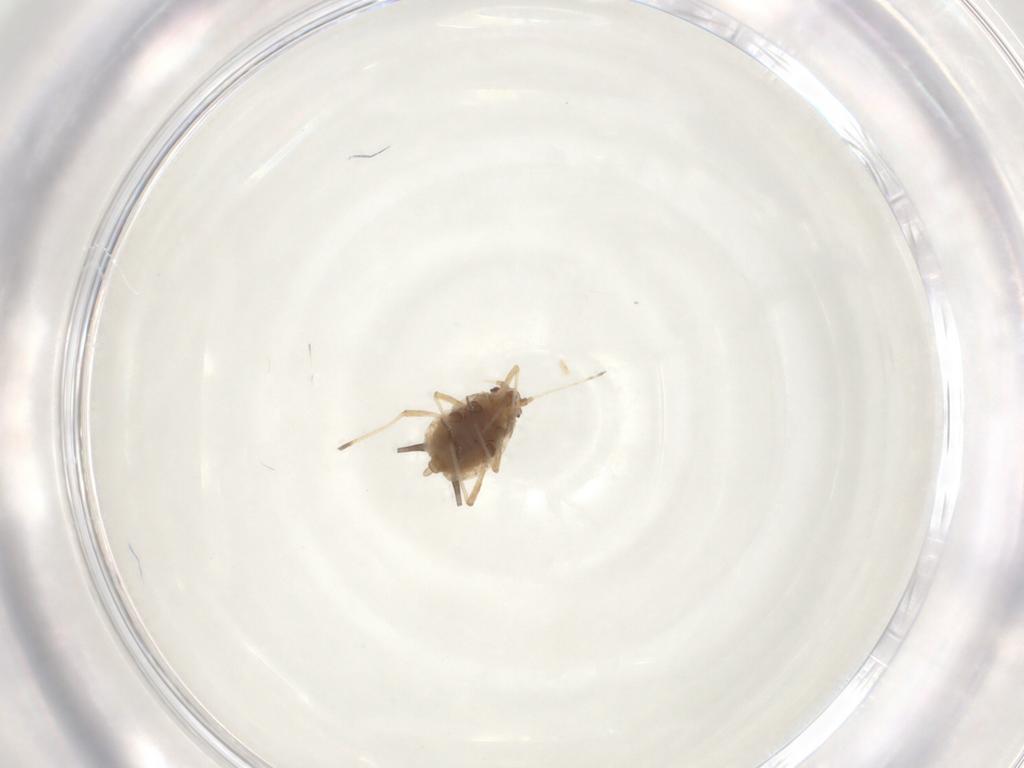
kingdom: Animalia
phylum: Arthropoda
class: Insecta
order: Hemiptera
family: Aphididae
